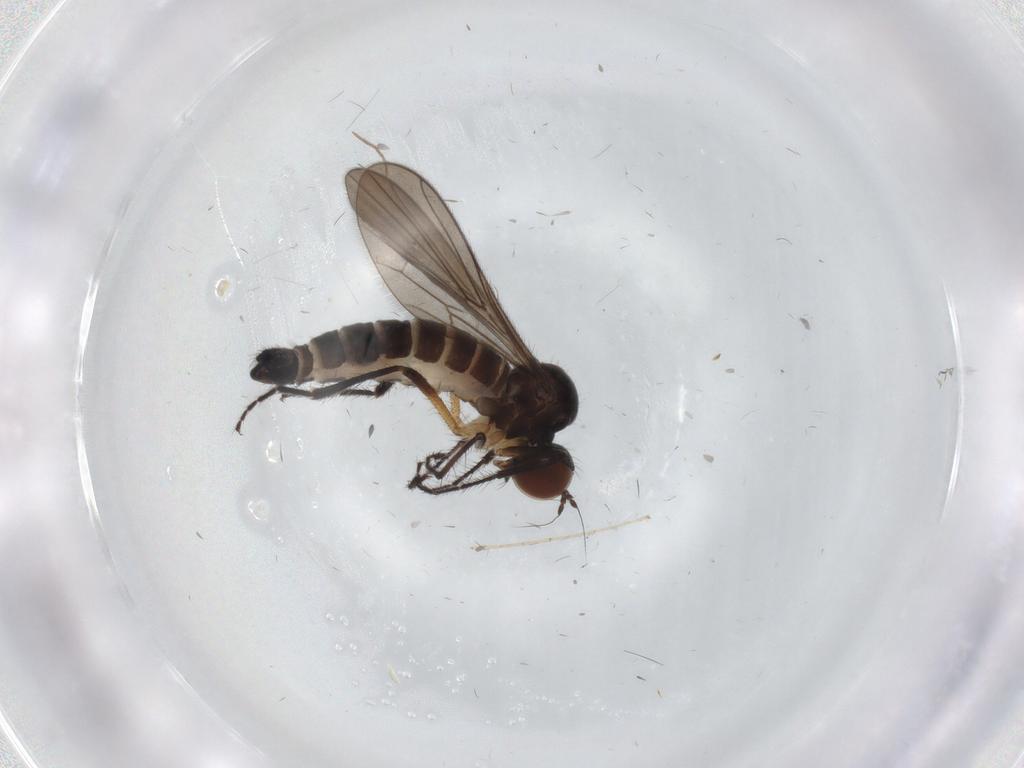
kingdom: Animalia
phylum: Arthropoda
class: Insecta
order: Diptera
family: Hybotidae
